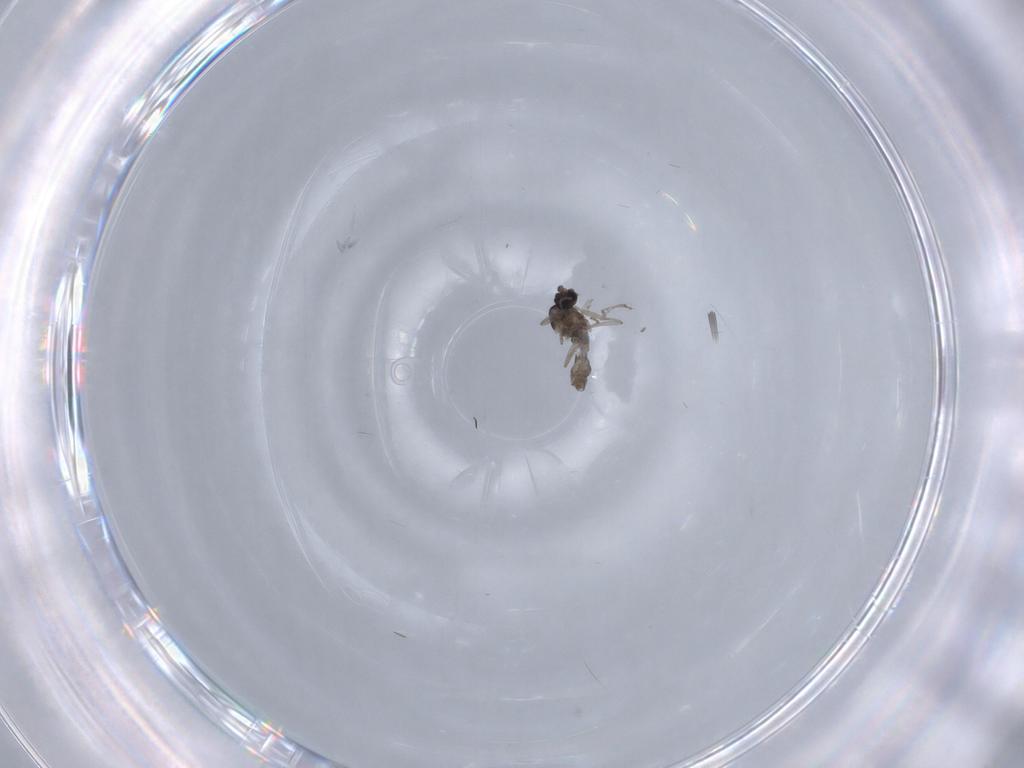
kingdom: Animalia
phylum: Arthropoda
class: Insecta
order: Diptera
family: Cecidomyiidae
